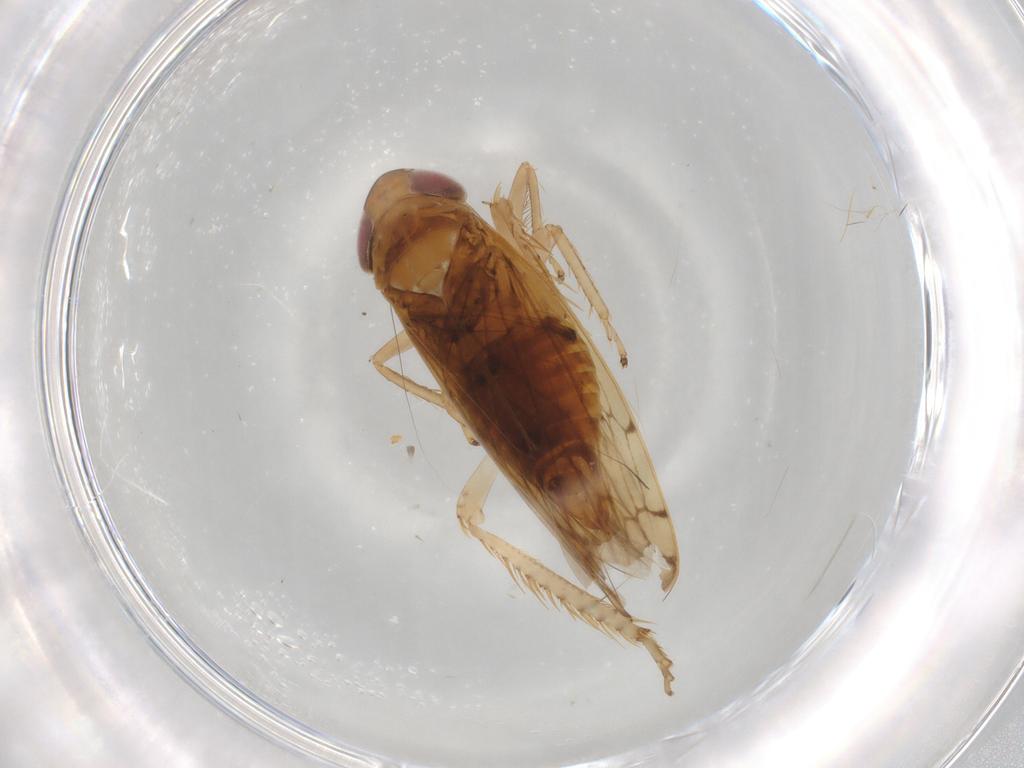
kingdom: Animalia
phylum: Arthropoda
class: Insecta
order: Hemiptera
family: Cicadellidae
